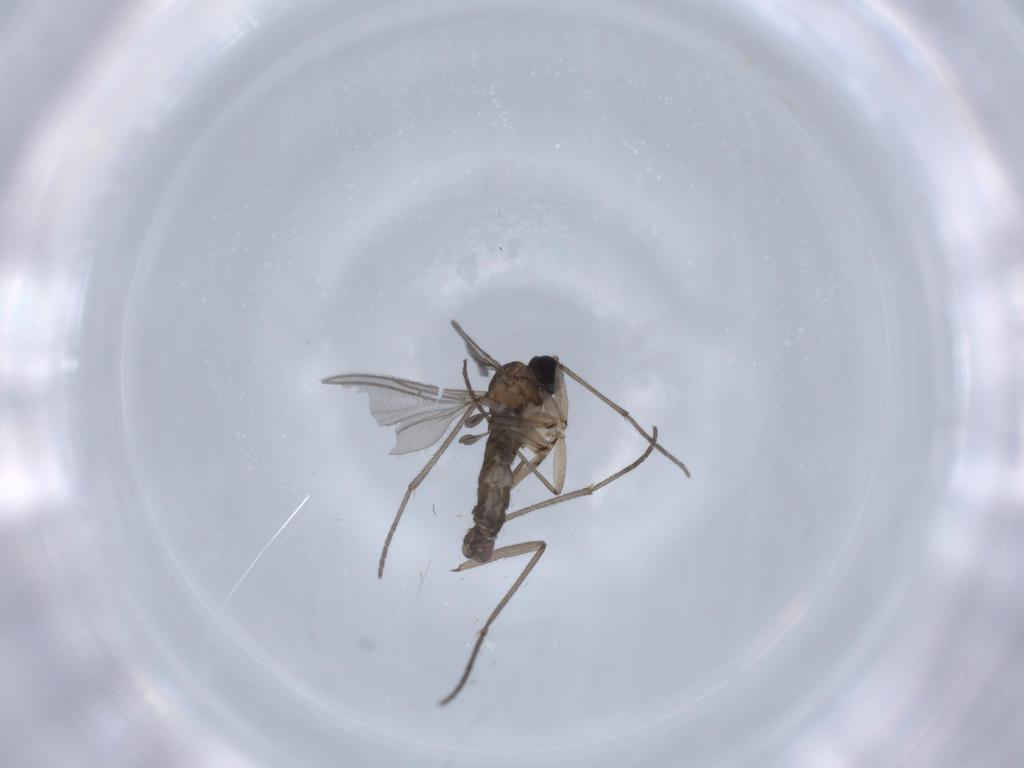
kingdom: Animalia
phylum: Arthropoda
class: Insecta
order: Diptera
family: Sciaridae
